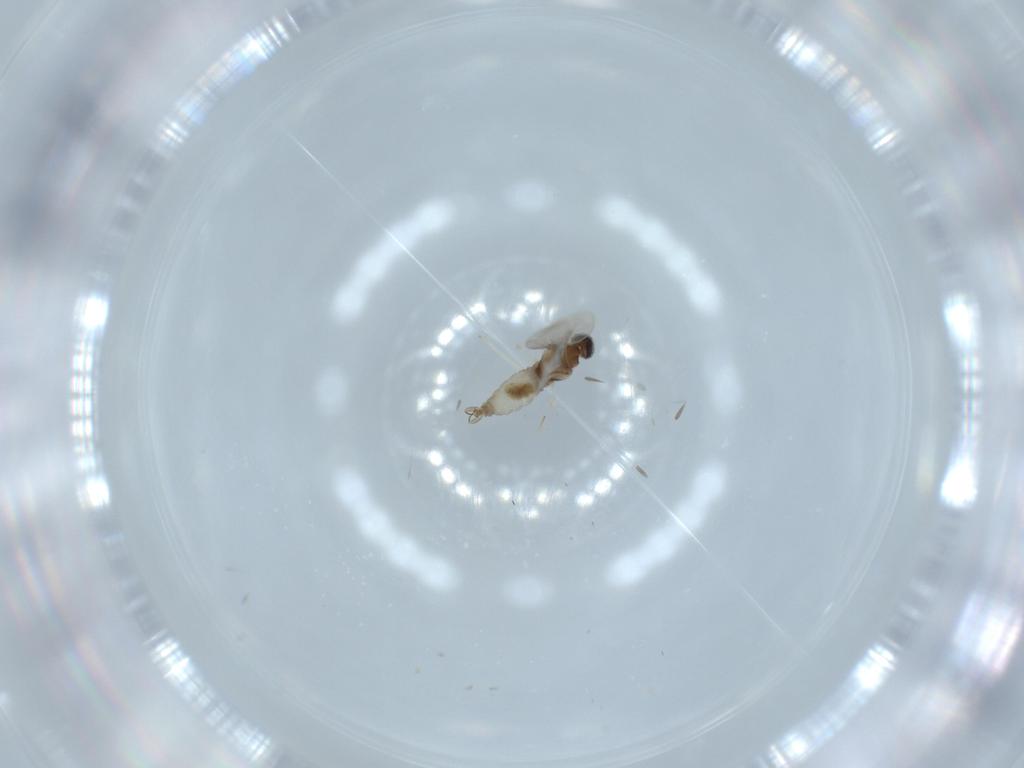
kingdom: Animalia
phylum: Arthropoda
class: Insecta
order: Diptera
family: Cecidomyiidae
